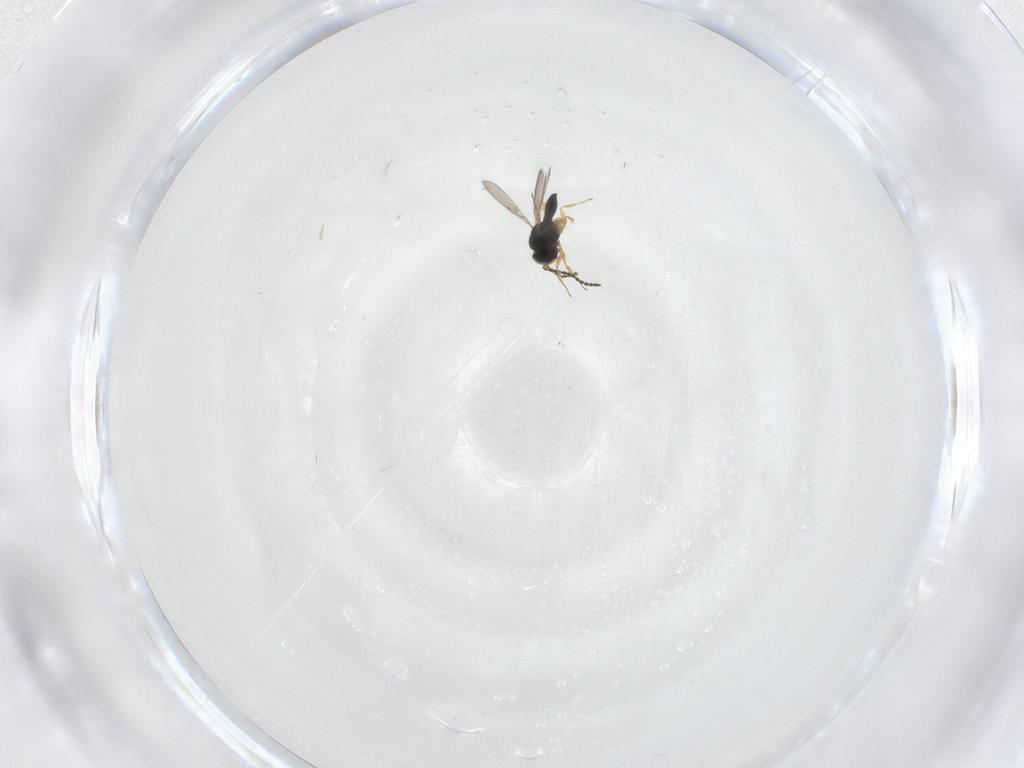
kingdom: Animalia
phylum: Arthropoda
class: Insecta
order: Hymenoptera
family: Scelionidae
